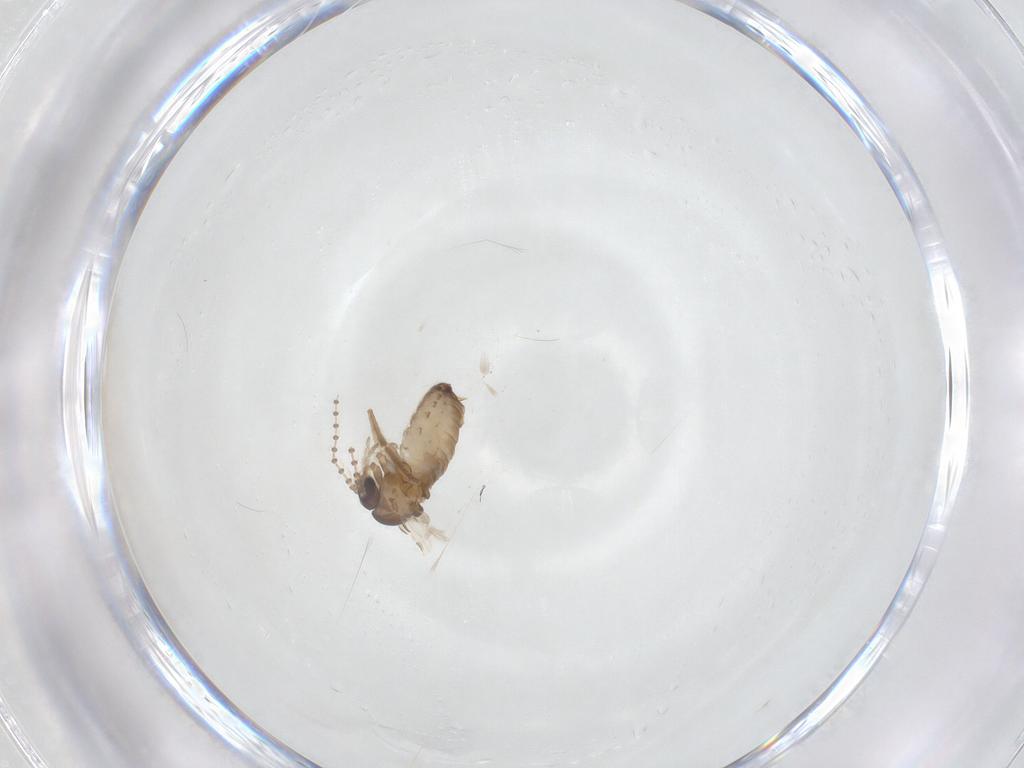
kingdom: Animalia
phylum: Arthropoda
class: Insecta
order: Diptera
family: Psychodidae
